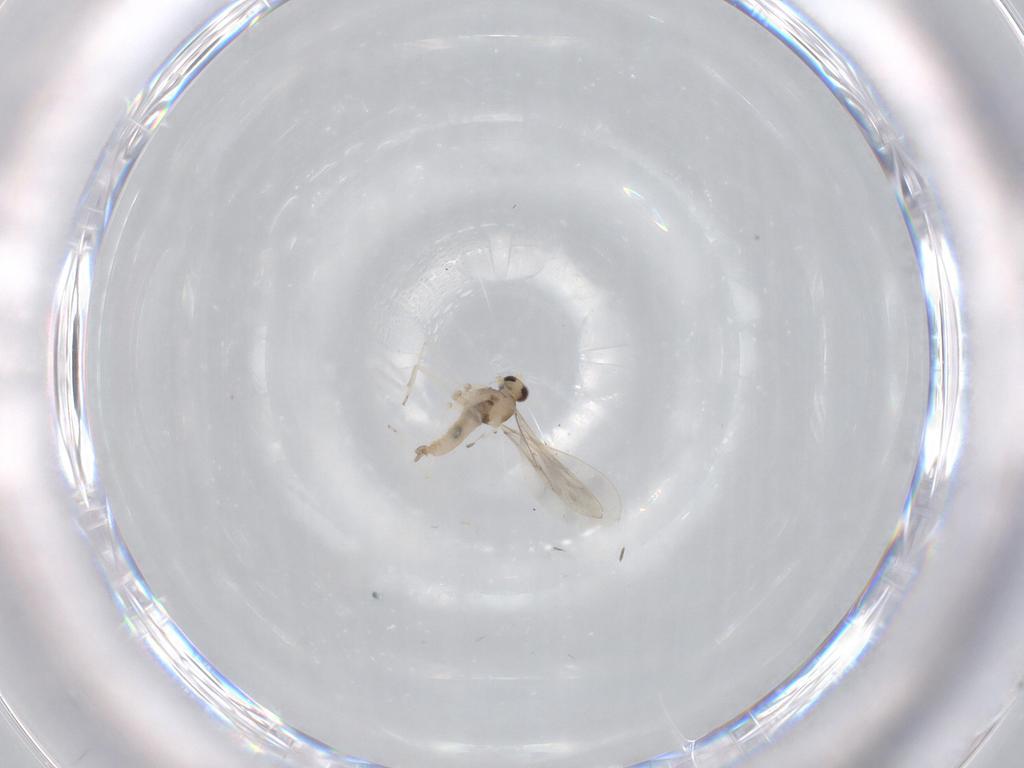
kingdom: Animalia
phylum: Arthropoda
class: Insecta
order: Diptera
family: Cecidomyiidae
